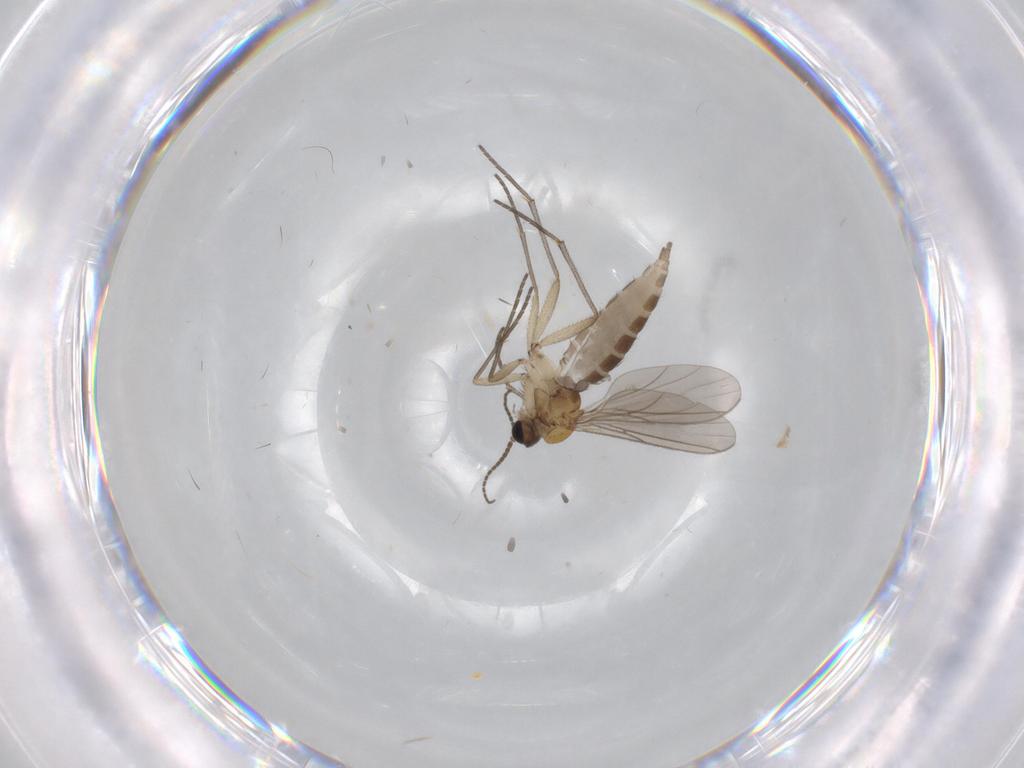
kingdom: Animalia
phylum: Arthropoda
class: Insecta
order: Diptera
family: Sciaridae
